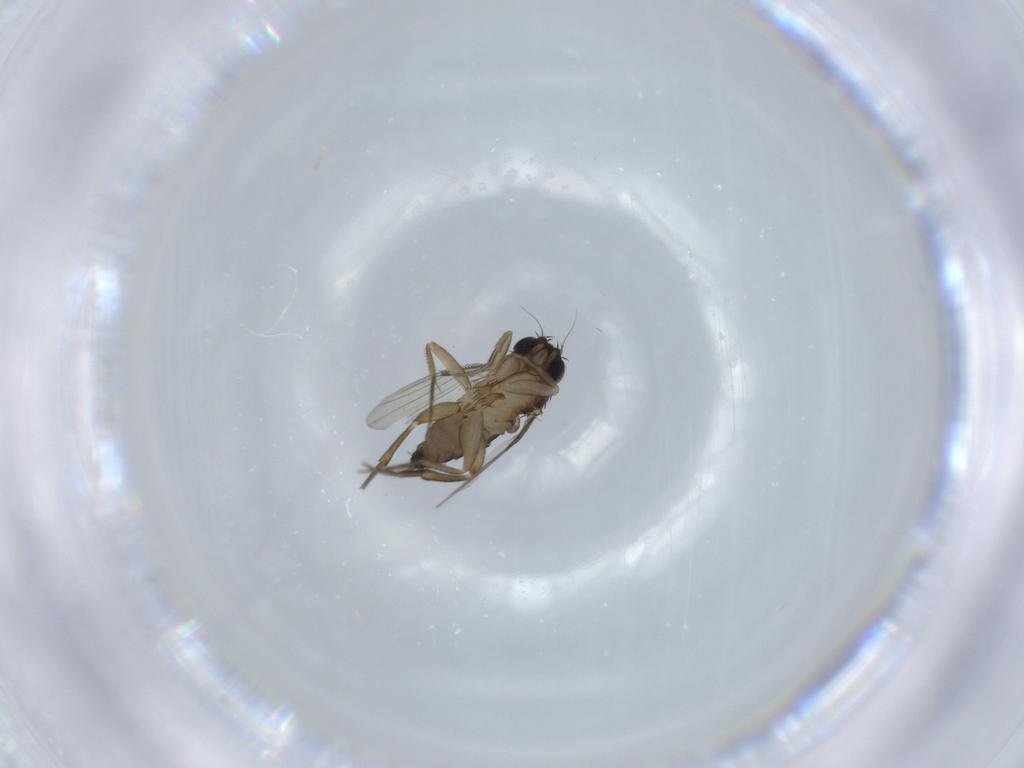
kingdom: Animalia
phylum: Arthropoda
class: Insecta
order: Diptera
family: Phoridae
